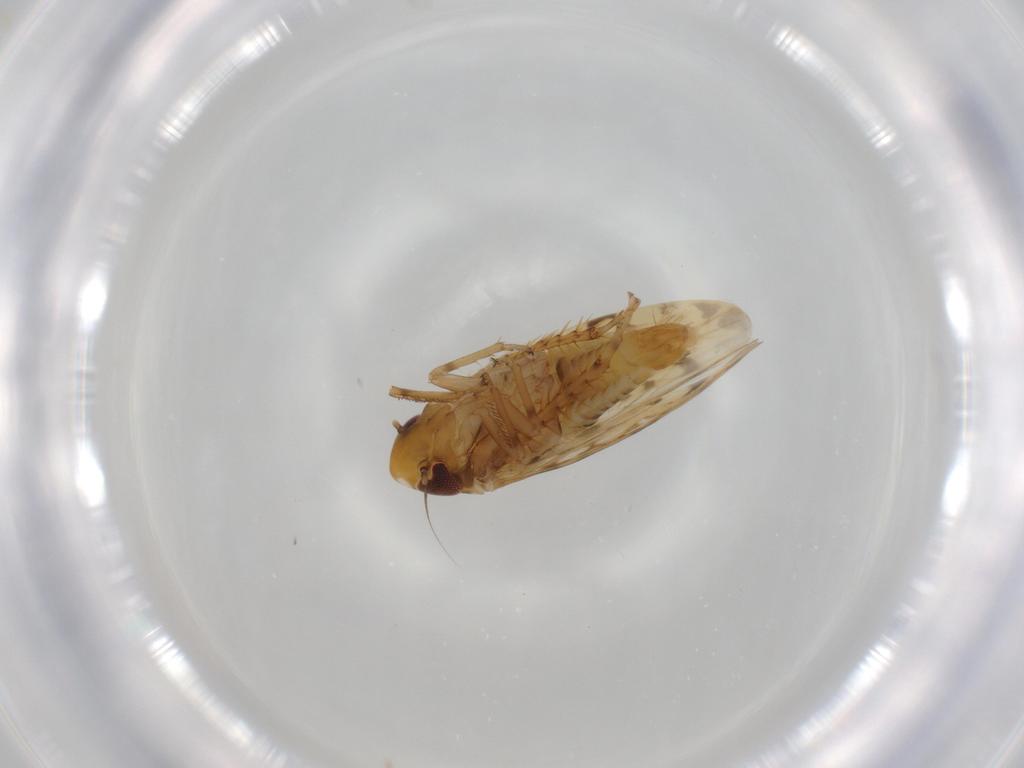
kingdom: Animalia
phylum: Arthropoda
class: Insecta
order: Hemiptera
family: Cicadellidae
